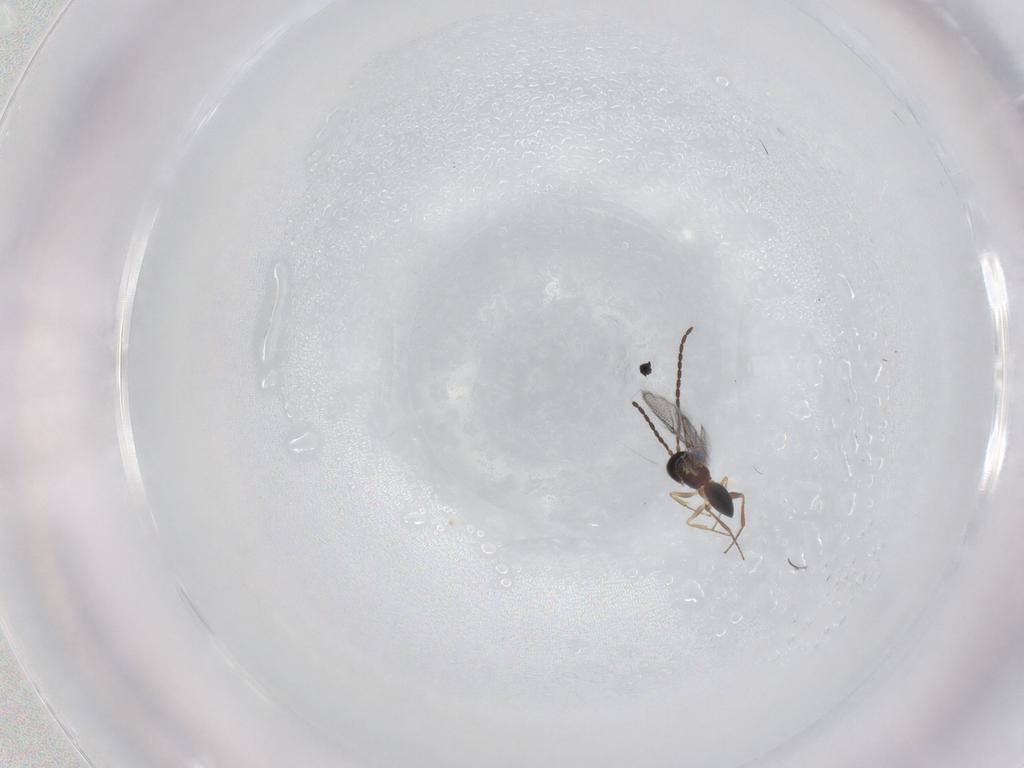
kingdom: Animalia
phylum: Arthropoda
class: Insecta
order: Hymenoptera
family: Figitidae
